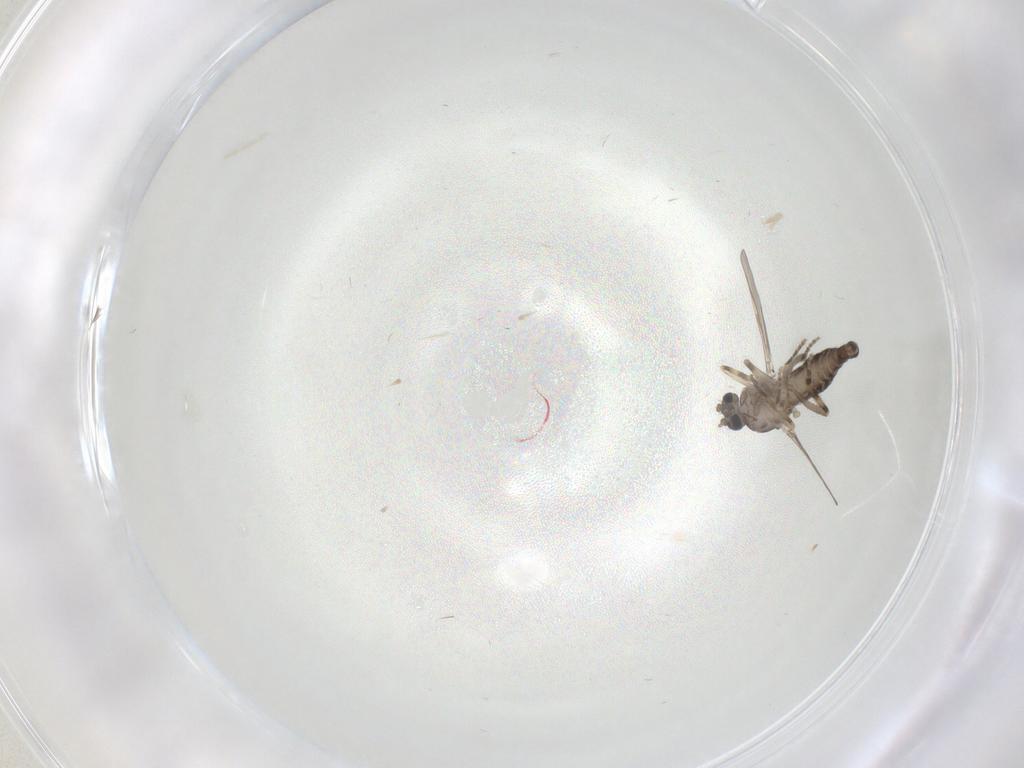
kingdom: Animalia
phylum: Arthropoda
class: Insecta
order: Diptera
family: Ceratopogonidae
